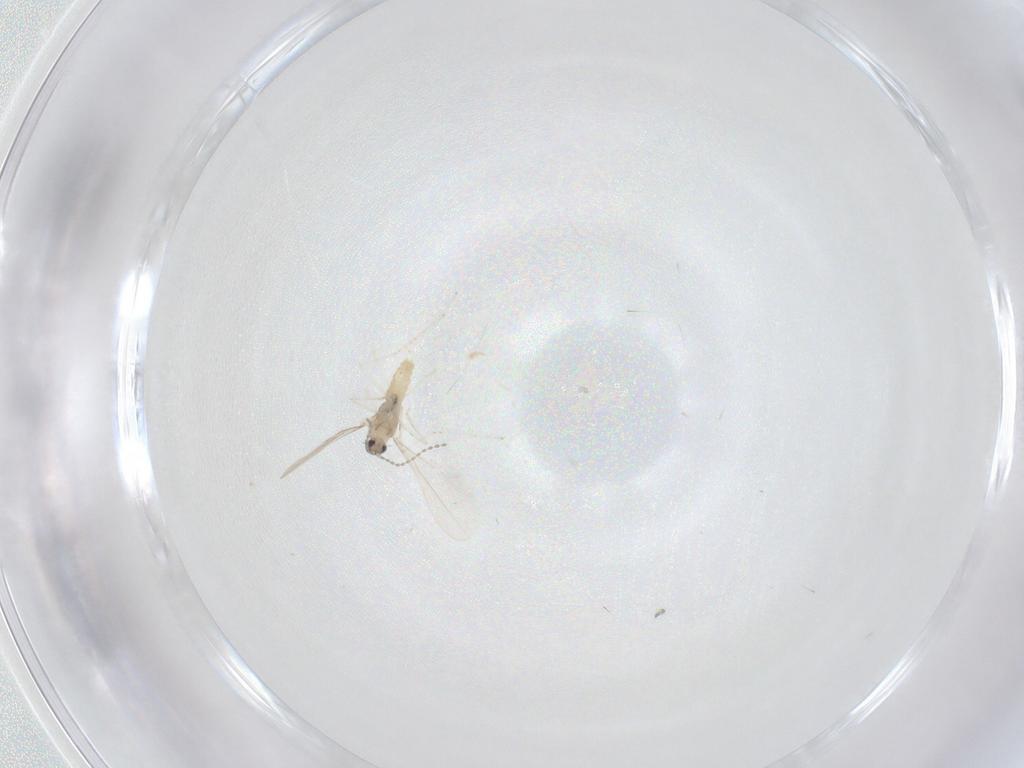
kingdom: Animalia
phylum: Arthropoda
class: Insecta
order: Diptera
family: Cecidomyiidae
